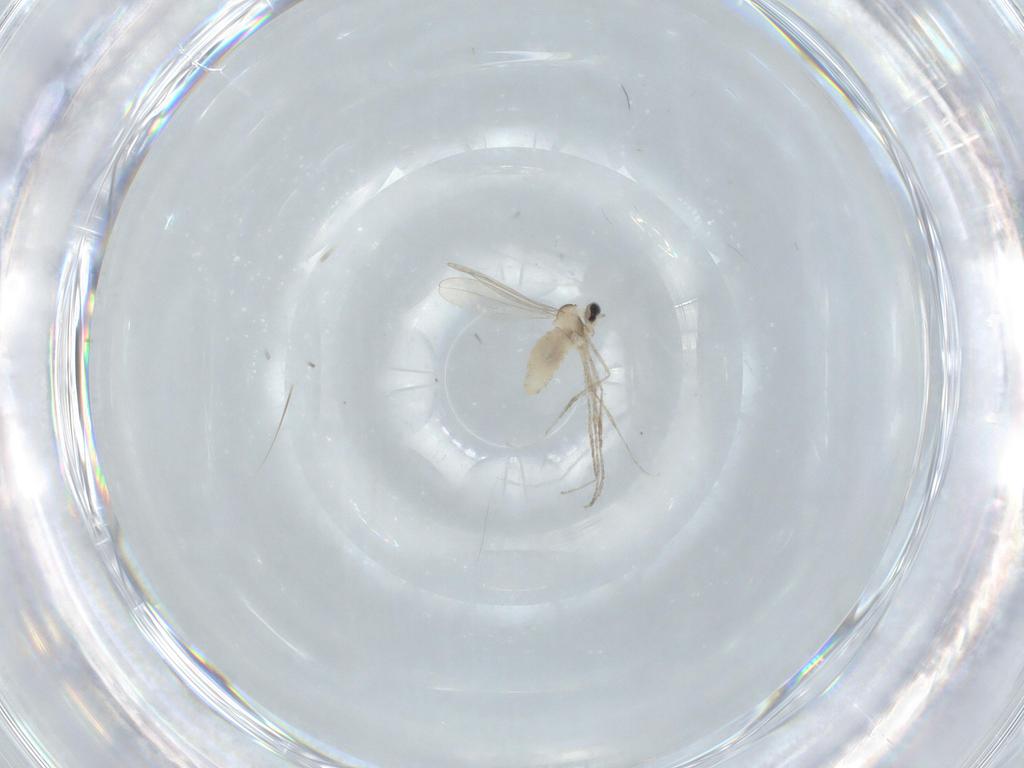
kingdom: Animalia
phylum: Arthropoda
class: Insecta
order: Diptera
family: Cecidomyiidae
